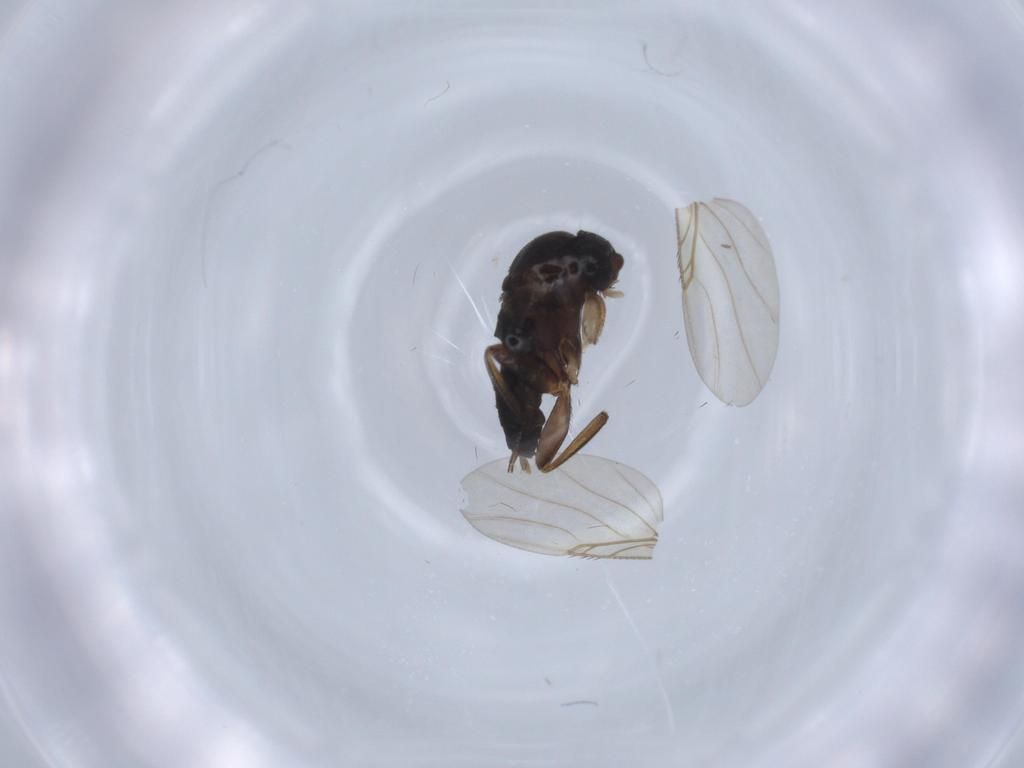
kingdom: Animalia
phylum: Arthropoda
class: Insecta
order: Diptera
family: Phoridae
